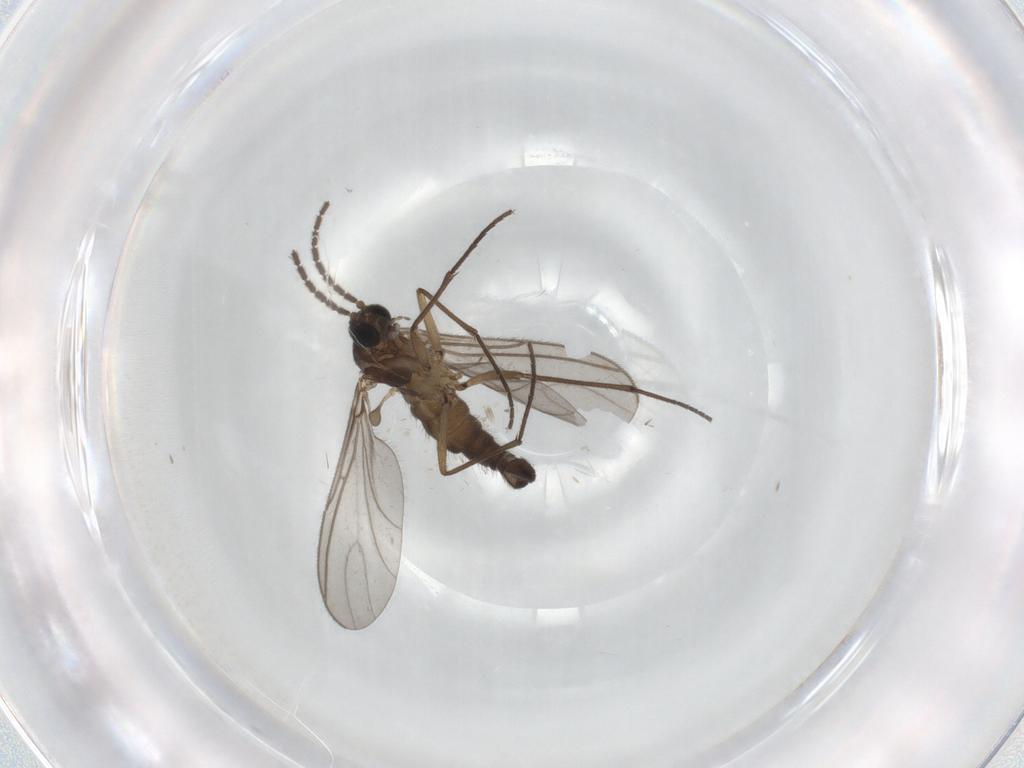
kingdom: Animalia
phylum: Arthropoda
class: Insecta
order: Diptera
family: Sciaridae
